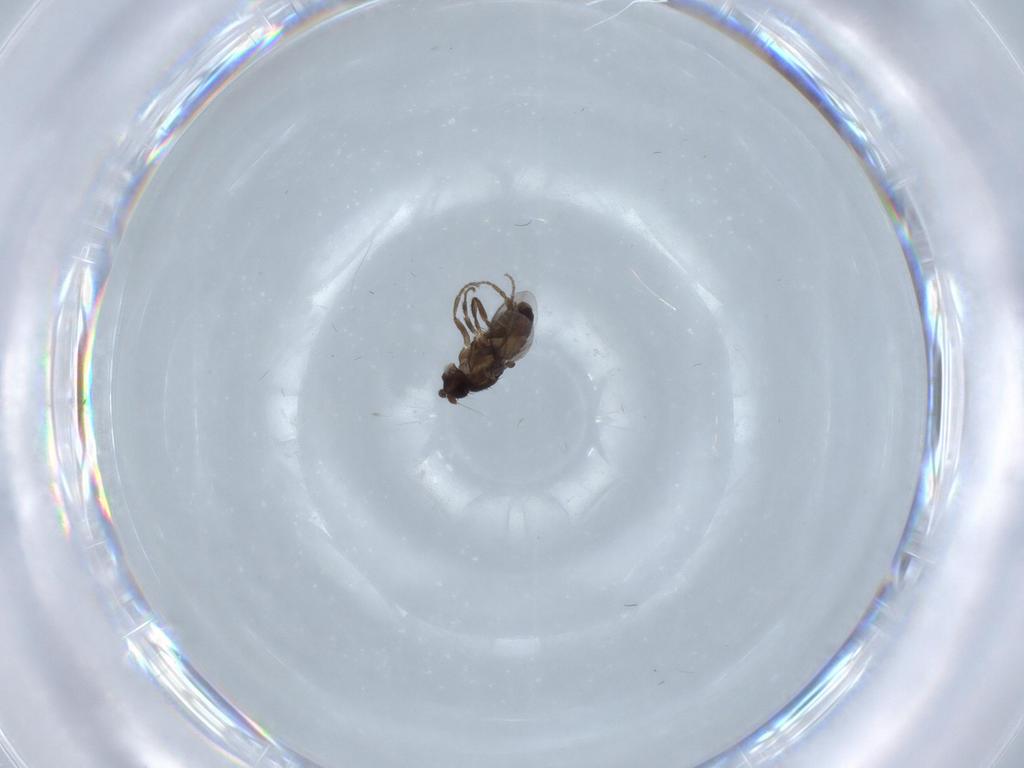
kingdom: Animalia
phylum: Arthropoda
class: Insecta
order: Diptera
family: Sphaeroceridae
